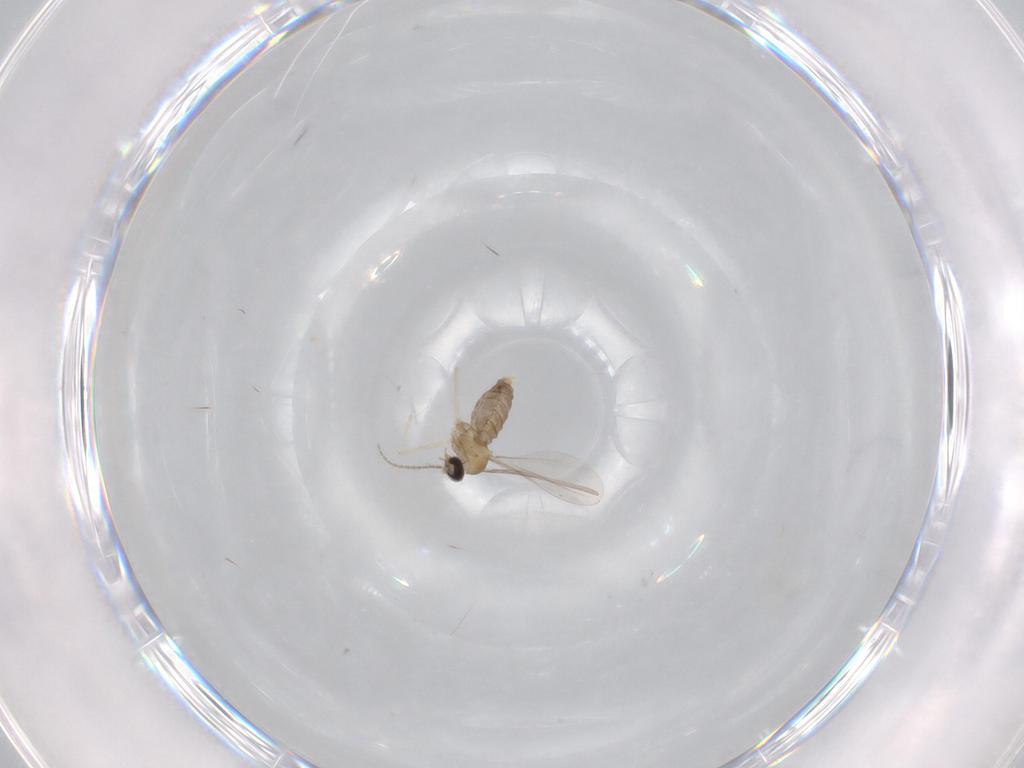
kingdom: Animalia
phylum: Arthropoda
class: Insecta
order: Diptera
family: Cecidomyiidae
